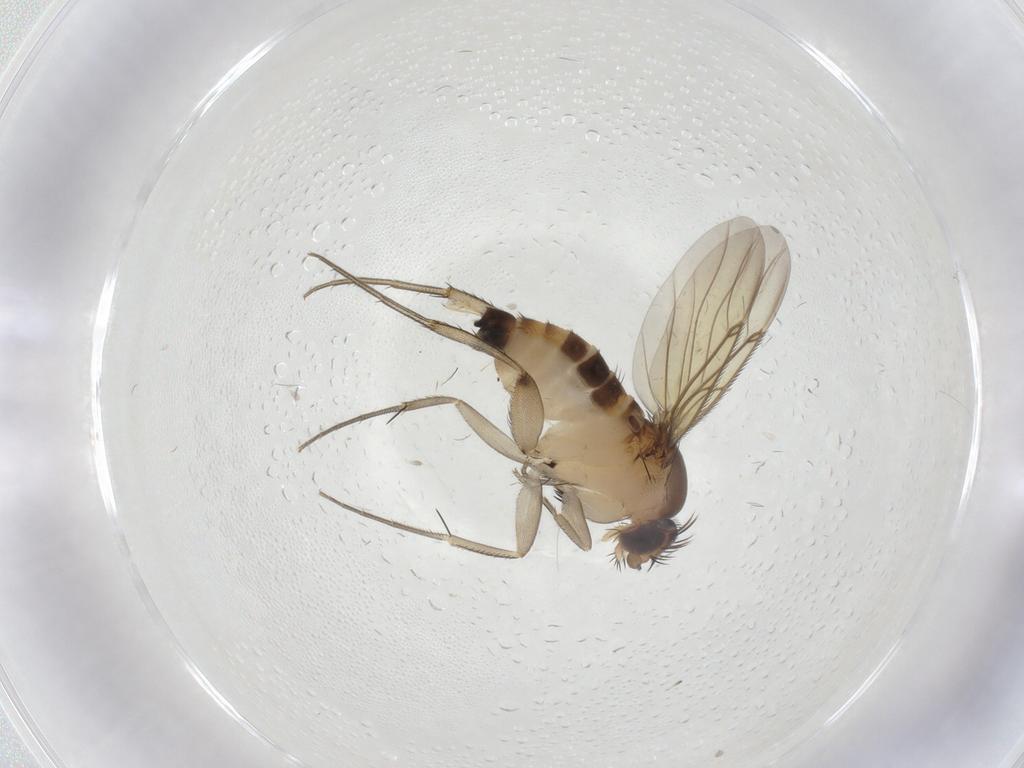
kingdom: Animalia
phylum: Arthropoda
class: Insecta
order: Diptera
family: Phoridae
